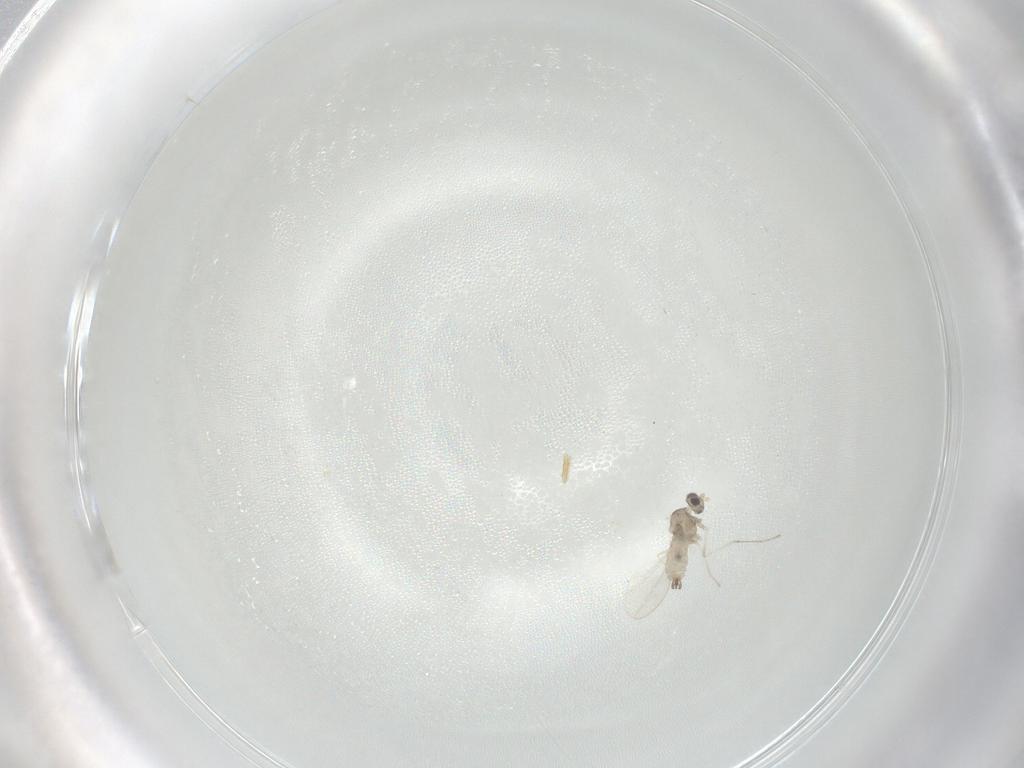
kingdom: Animalia
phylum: Arthropoda
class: Insecta
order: Diptera
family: Cecidomyiidae
